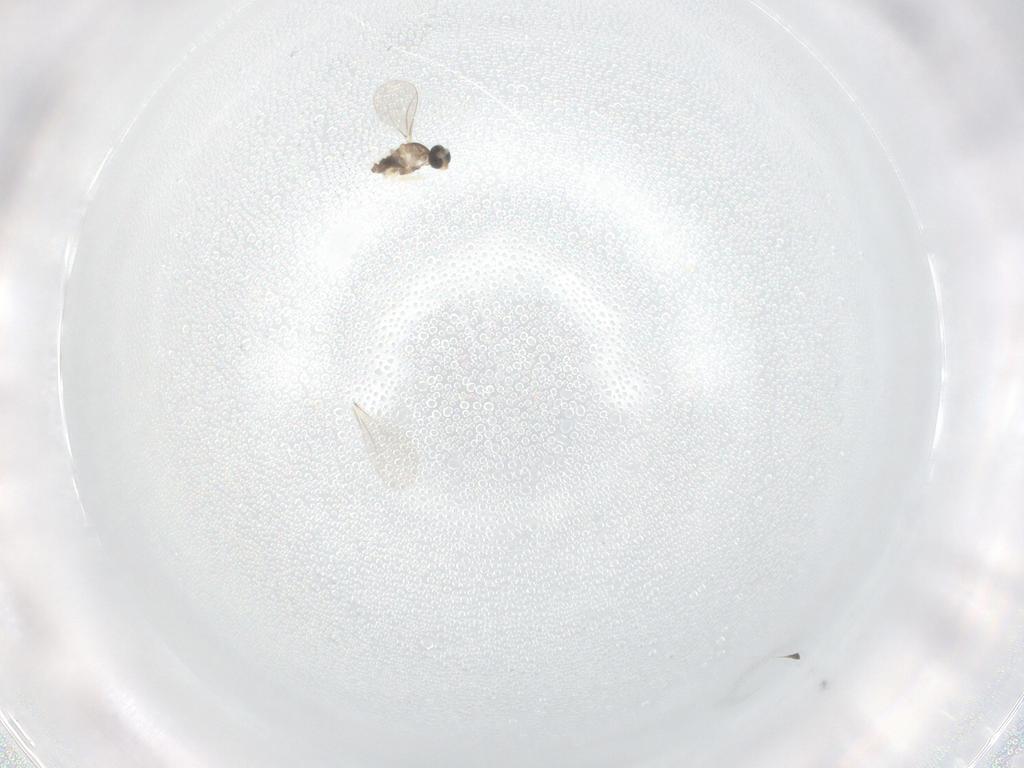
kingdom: Animalia
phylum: Arthropoda
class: Insecta
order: Diptera
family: Cecidomyiidae
